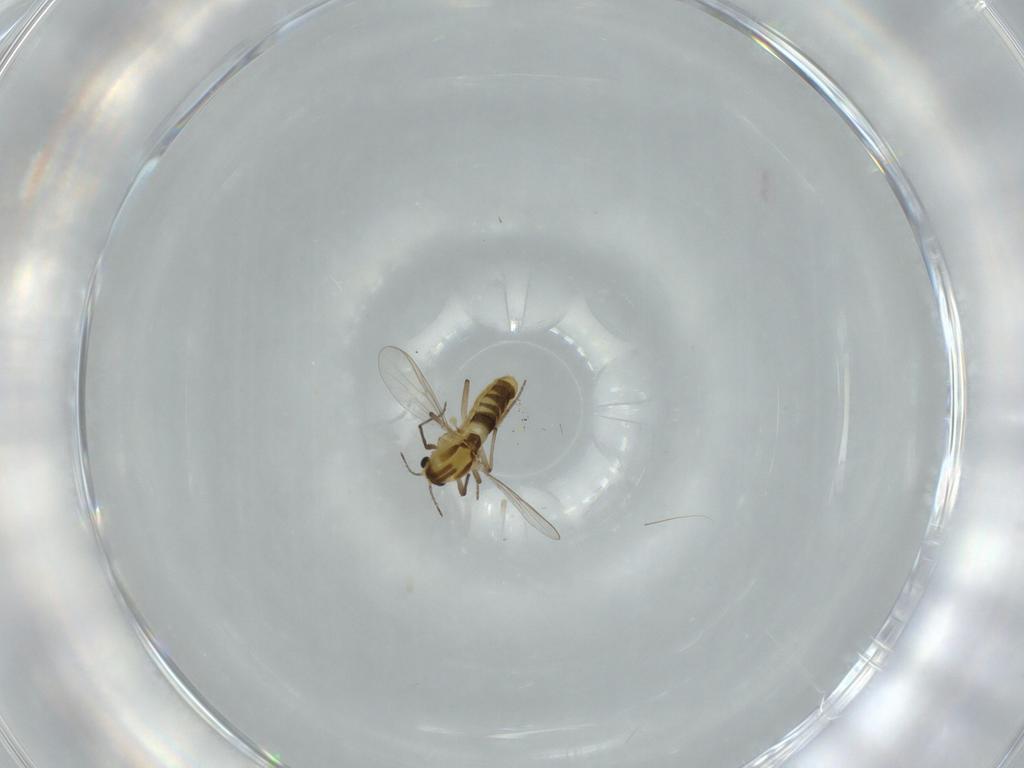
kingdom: Animalia
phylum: Arthropoda
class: Insecta
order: Diptera
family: Chironomidae
